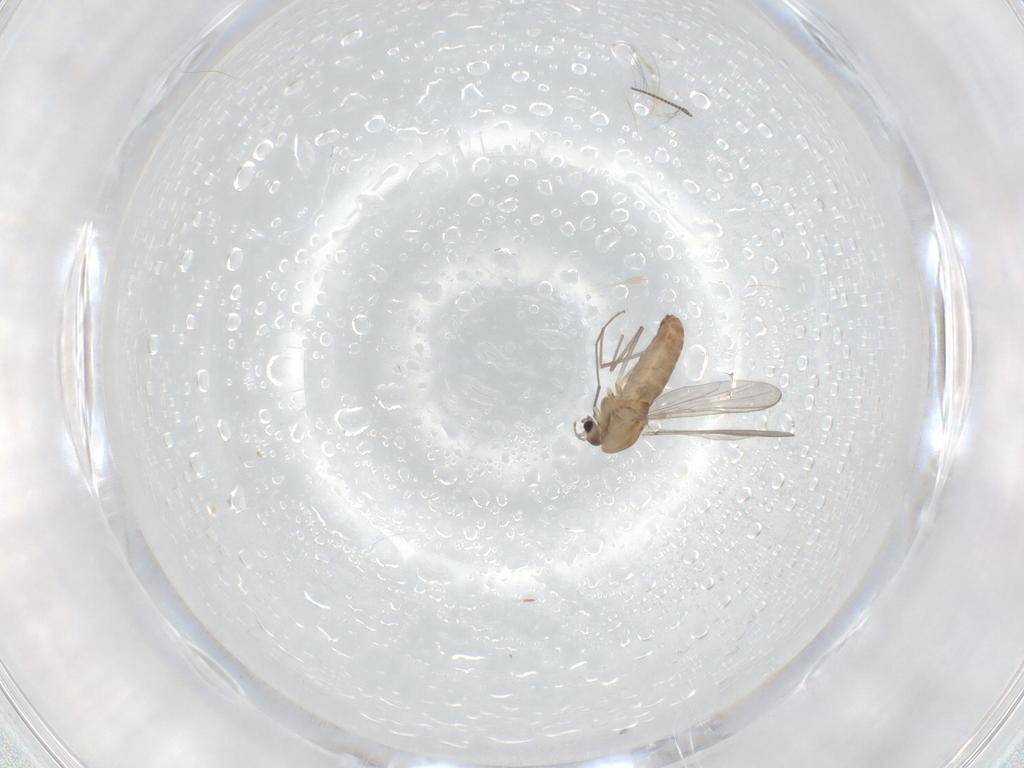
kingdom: Animalia
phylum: Arthropoda
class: Insecta
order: Diptera
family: Chironomidae
